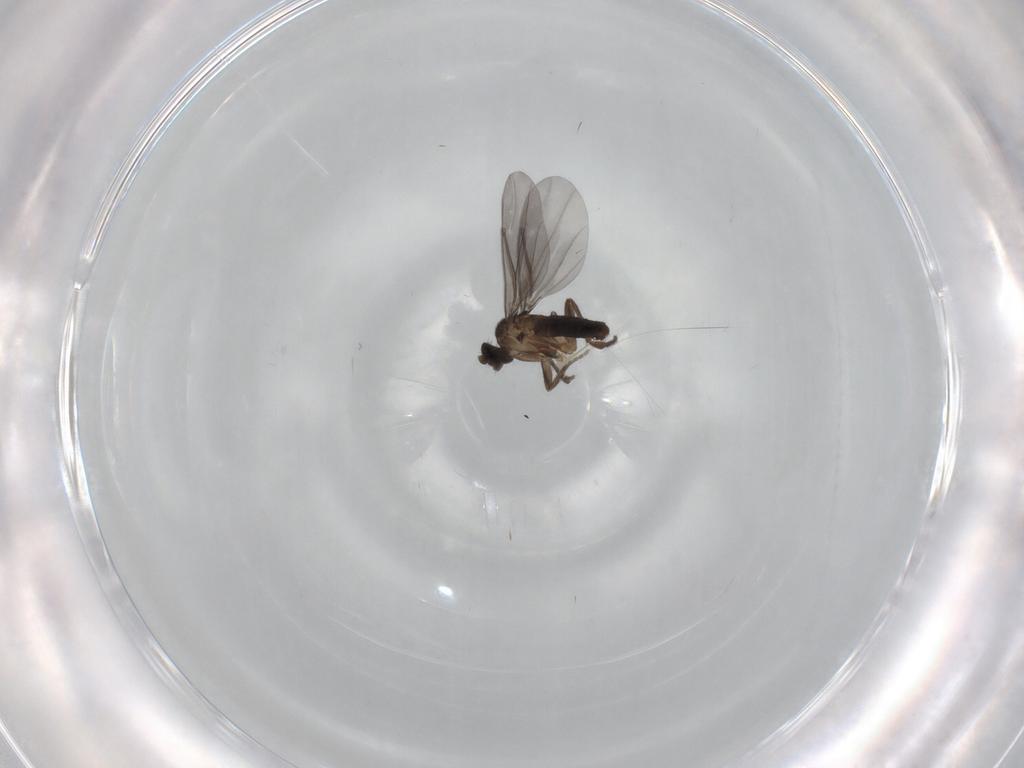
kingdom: Animalia
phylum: Arthropoda
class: Insecta
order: Diptera
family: Phoridae
